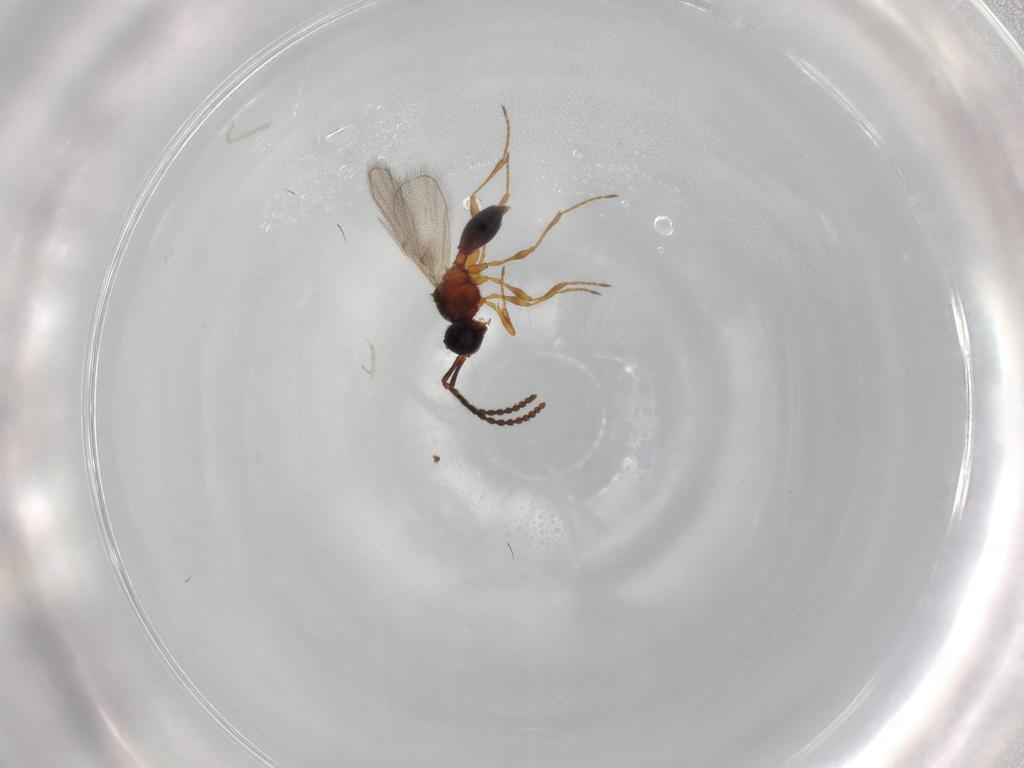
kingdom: Animalia
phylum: Arthropoda
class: Insecta
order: Hymenoptera
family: Diapriidae
